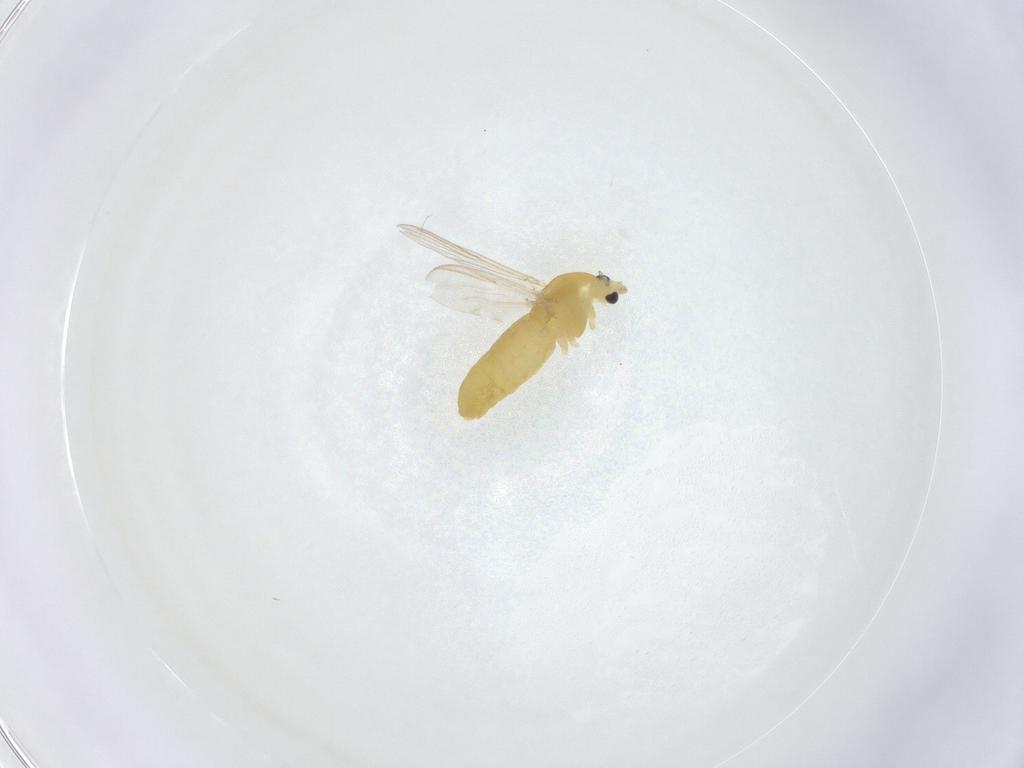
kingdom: Animalia
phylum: Arthropoda
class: Insecta
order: Diptera
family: Chironomidae
